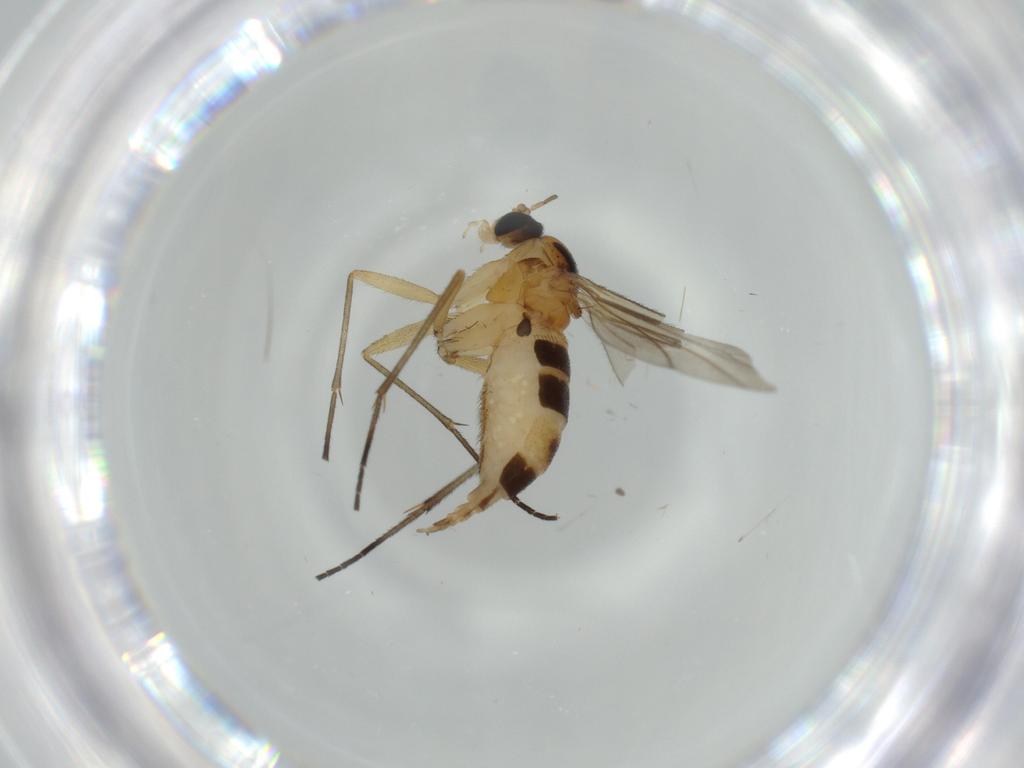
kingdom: Animalia
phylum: Arthropoda
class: Insecta
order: Diptera
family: Sciaridae
